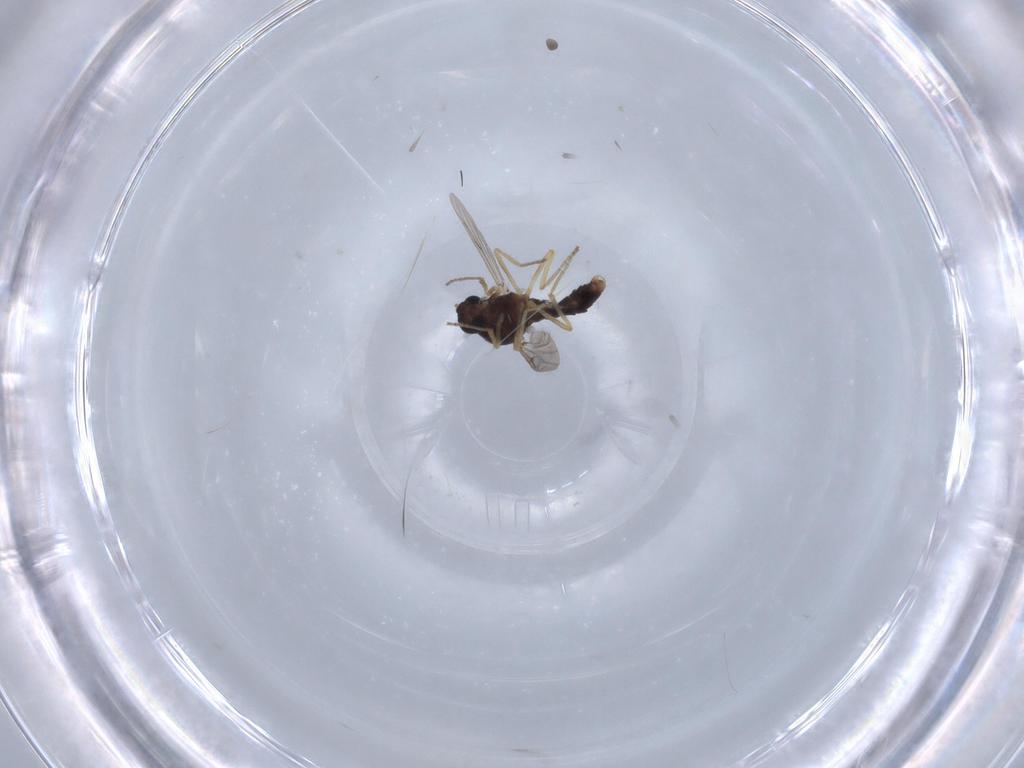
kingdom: Animalia
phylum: Arthropoda
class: Insecta
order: Diptera
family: Ceratopogonidae
